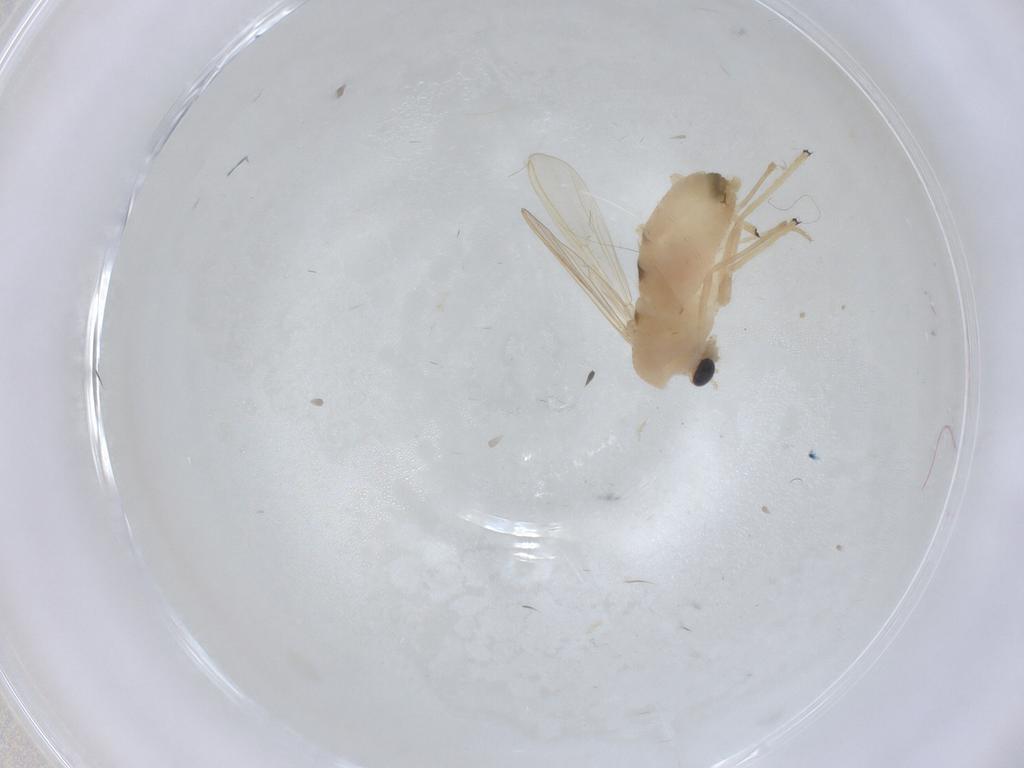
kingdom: Animalia
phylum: Arthropoda
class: Insecta
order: Diptera
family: Chironomidae
